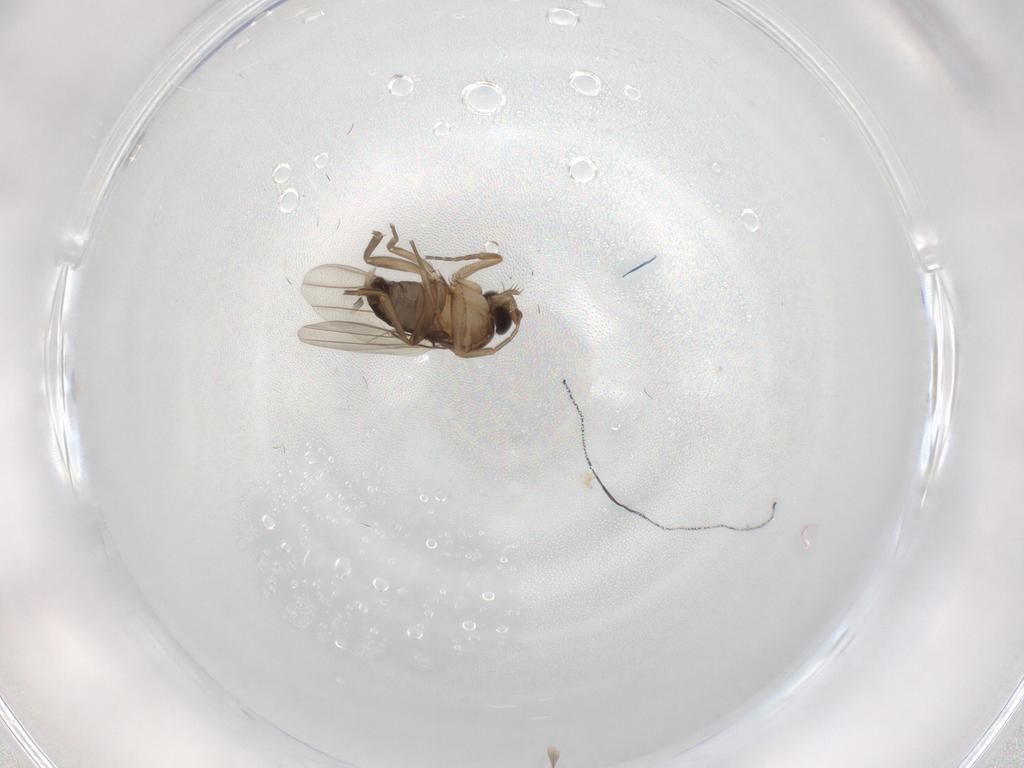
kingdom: Animalia
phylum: Arthropoda
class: Insecta
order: Diptera
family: Phoridae
